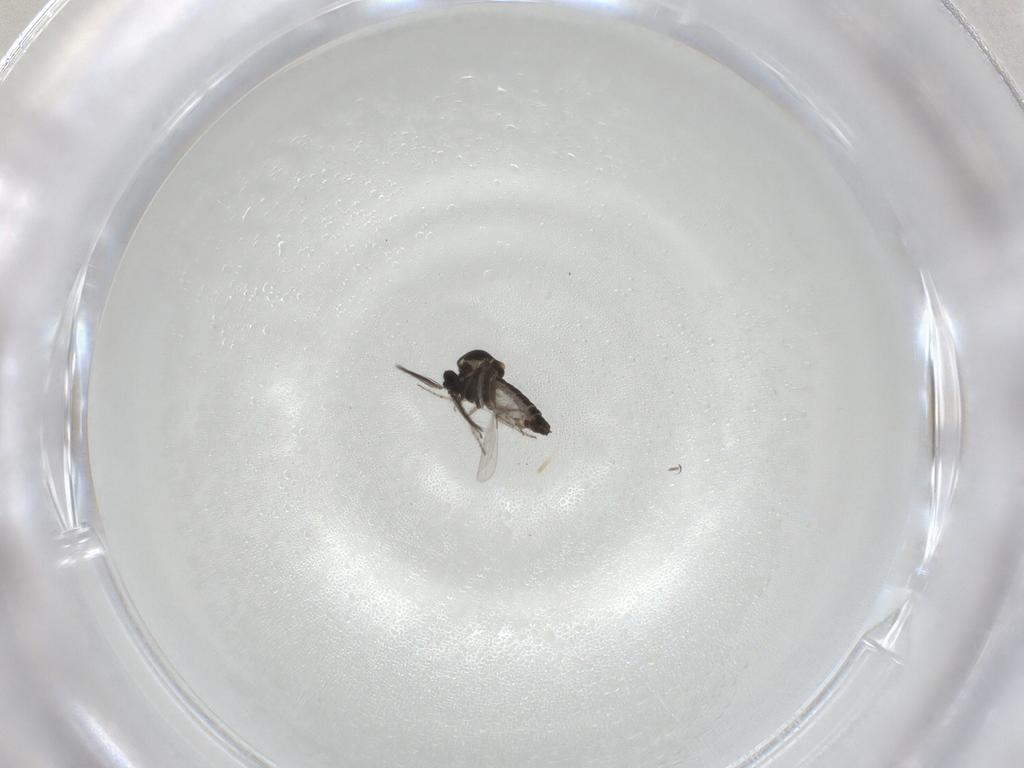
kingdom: Animalia
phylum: Arthropoda
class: Insecta
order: Diptera
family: Ceratopogonidae
